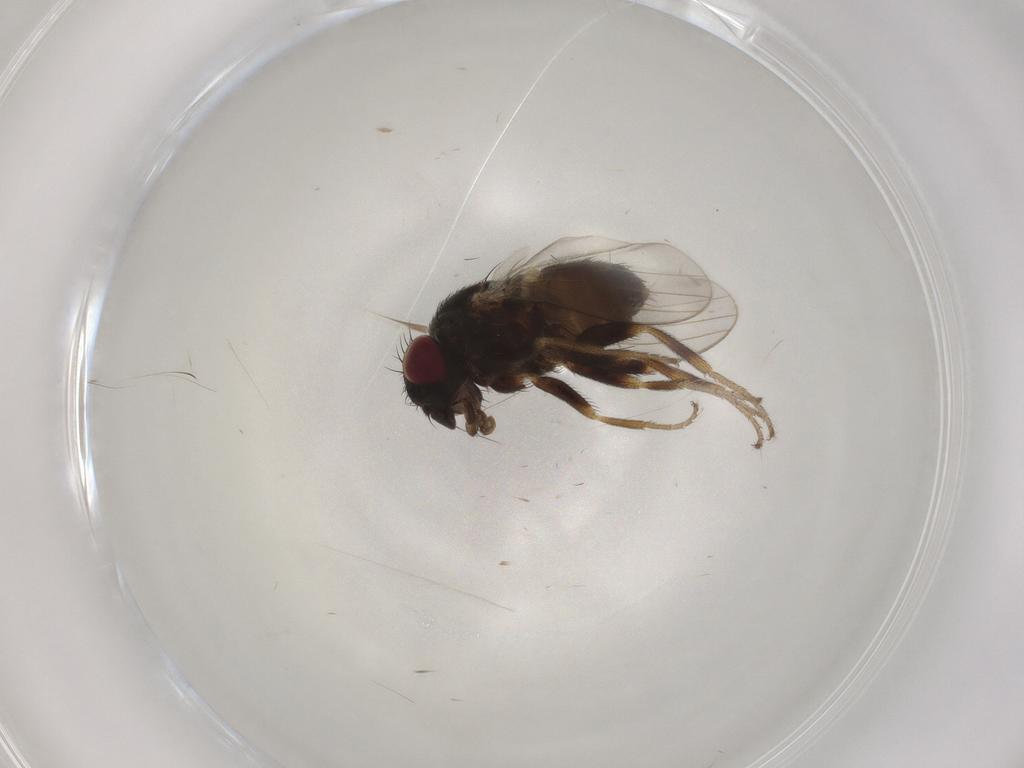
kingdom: Animalia
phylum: Arthropoda
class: Insecta
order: Diptera
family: Milichiidae
